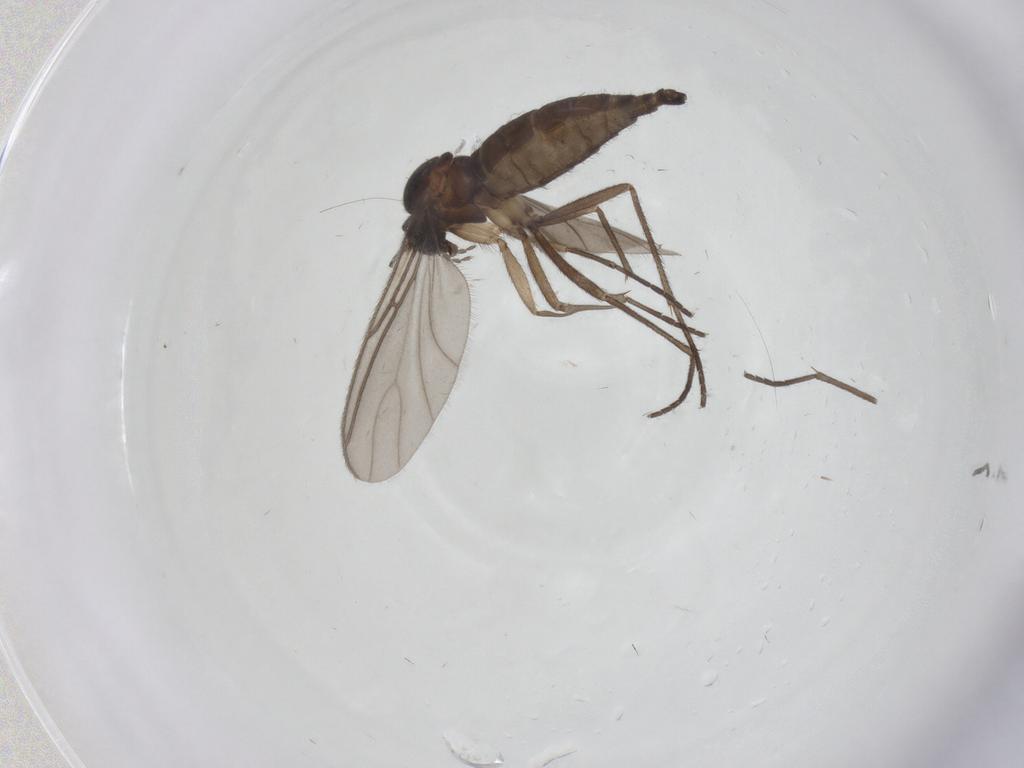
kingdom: Animalia
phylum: Arthropoda
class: Insecta
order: Diptera
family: Sciaridae
